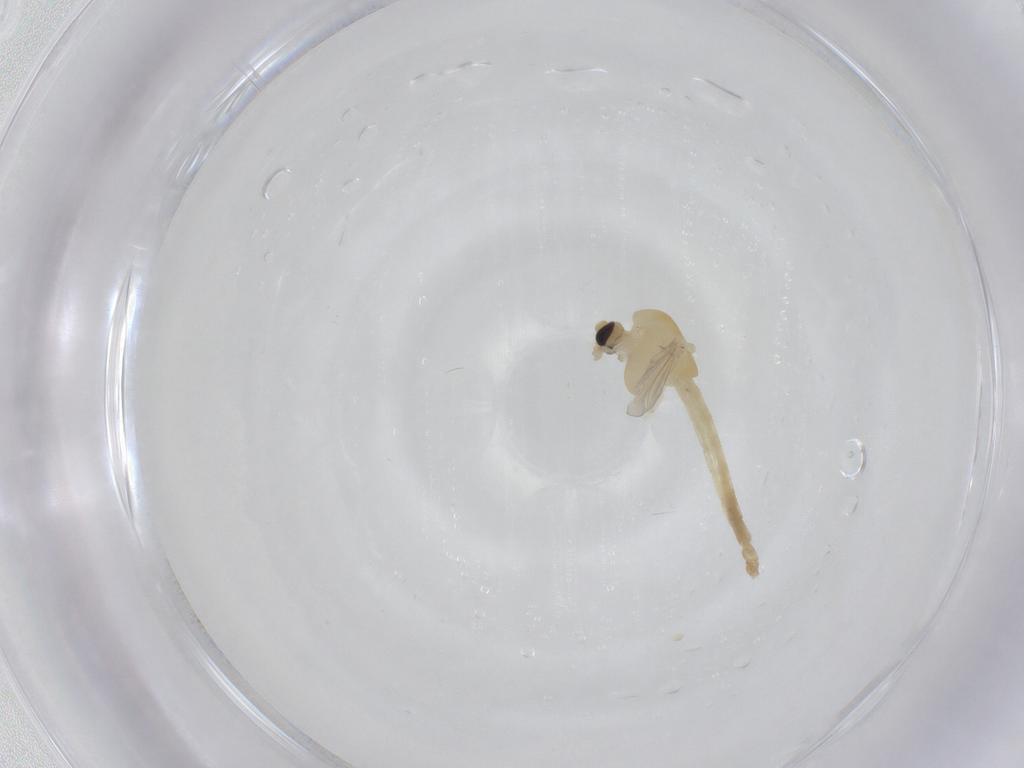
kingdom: Animalia
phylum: Arthropoda
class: Insecta
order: Diptera
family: Chironomidae
